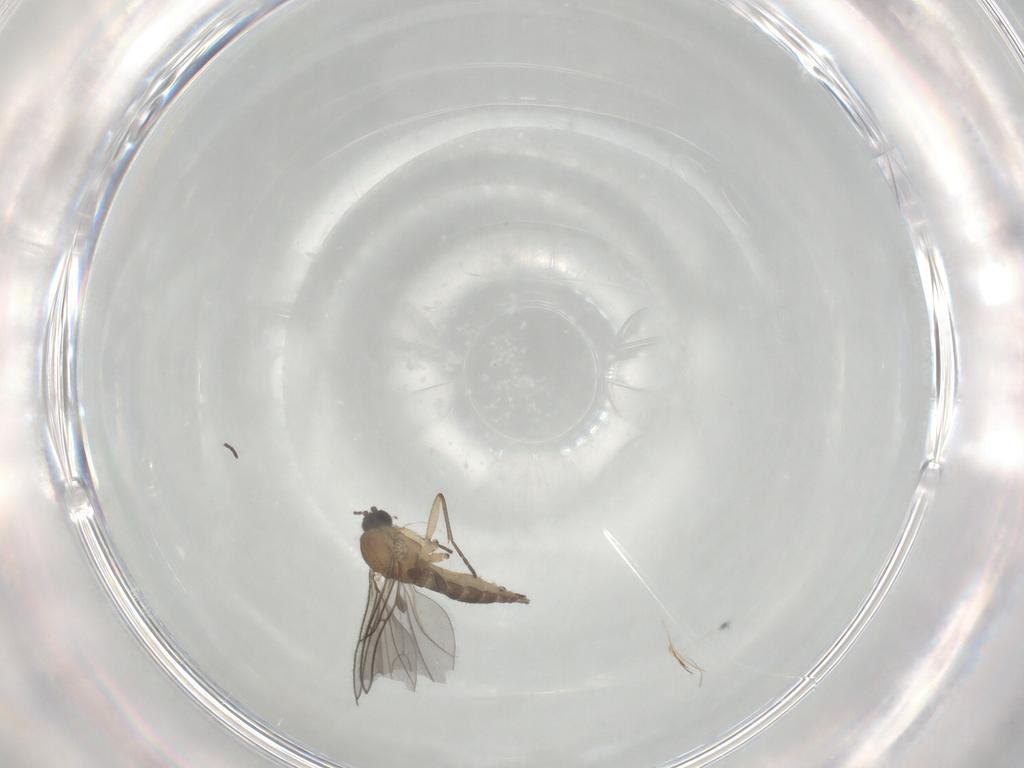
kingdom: Animalia
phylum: Arthropoda
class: Insecta
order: Diptera
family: Sciaridae
